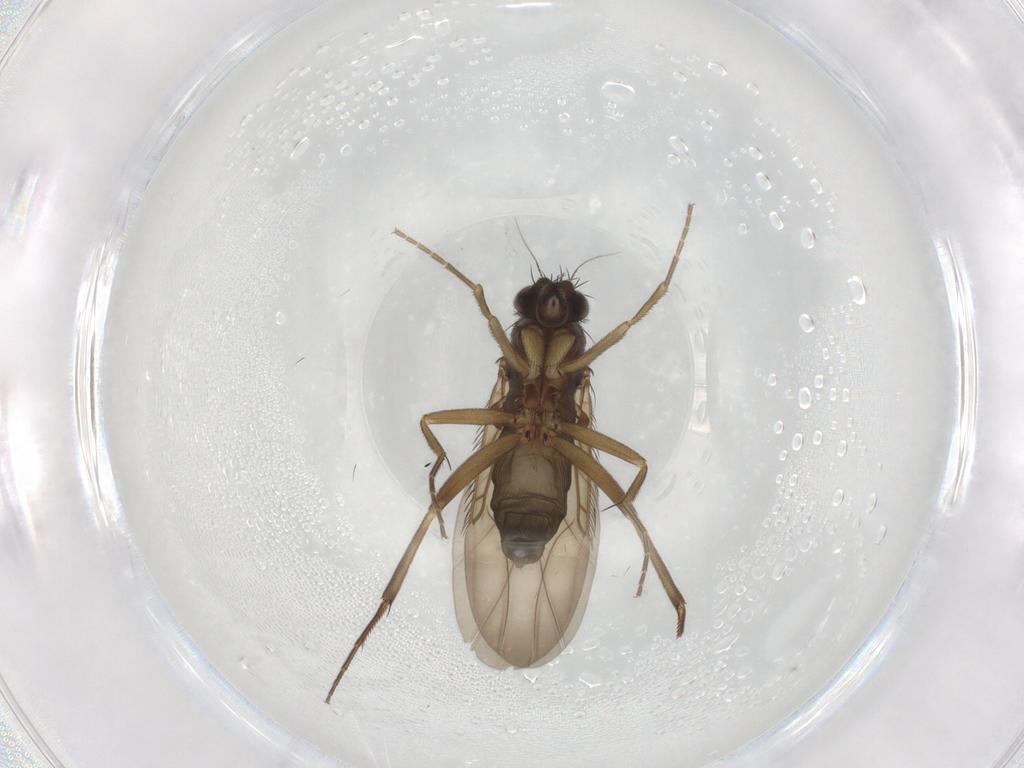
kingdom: Animalia
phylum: Arthropoda
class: Insecta
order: Diptera
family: Phoridae
